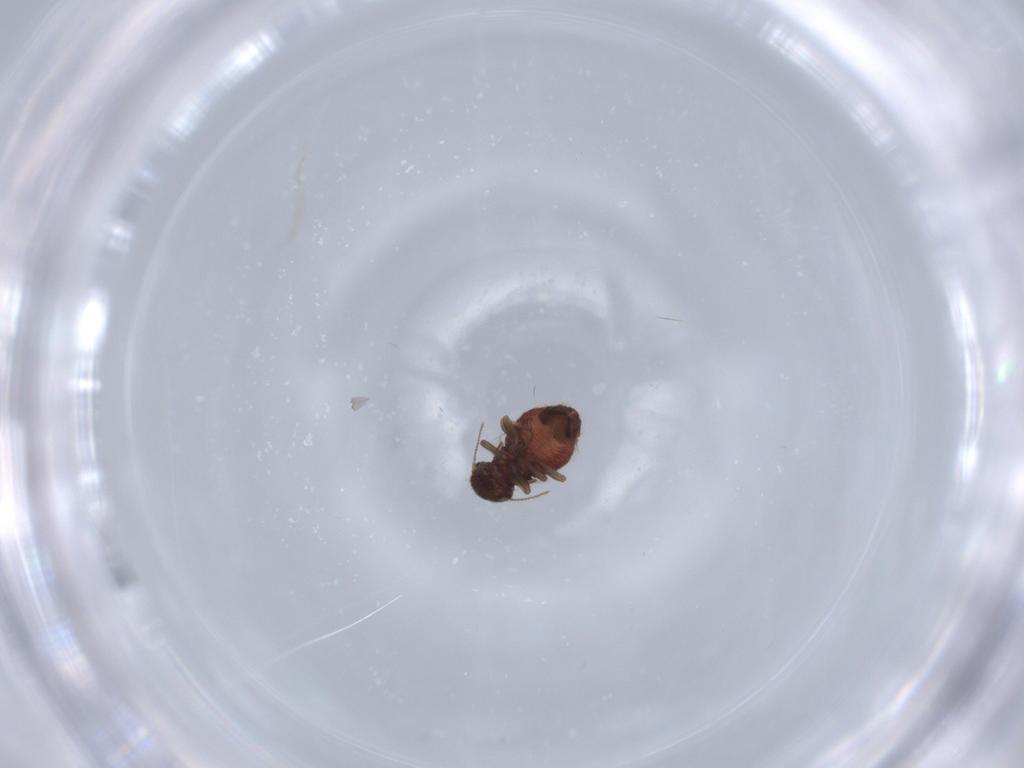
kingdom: Animalia
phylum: Arthropoda
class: Insecta
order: Psocodea
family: Archipsocidae
